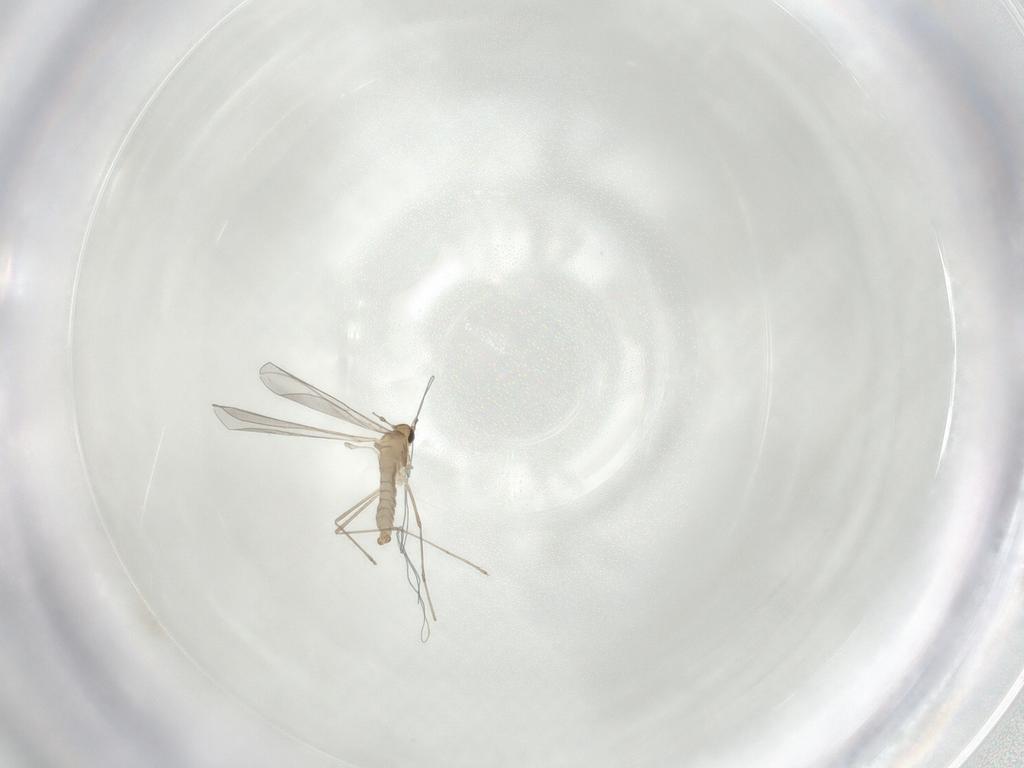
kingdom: Animalia
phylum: Arthropoda
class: Insecta
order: Diptera
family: Cecidomyiidae
